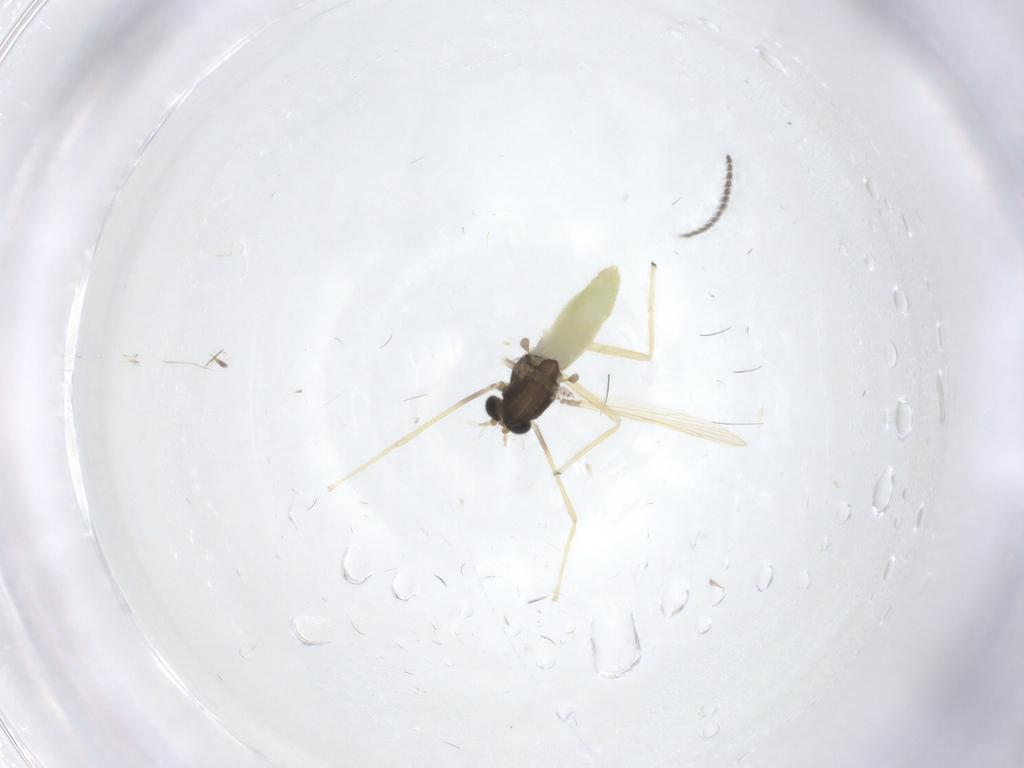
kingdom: Animalia
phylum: Arthropoda
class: Insecta
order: Diptera
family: Chironomidae
